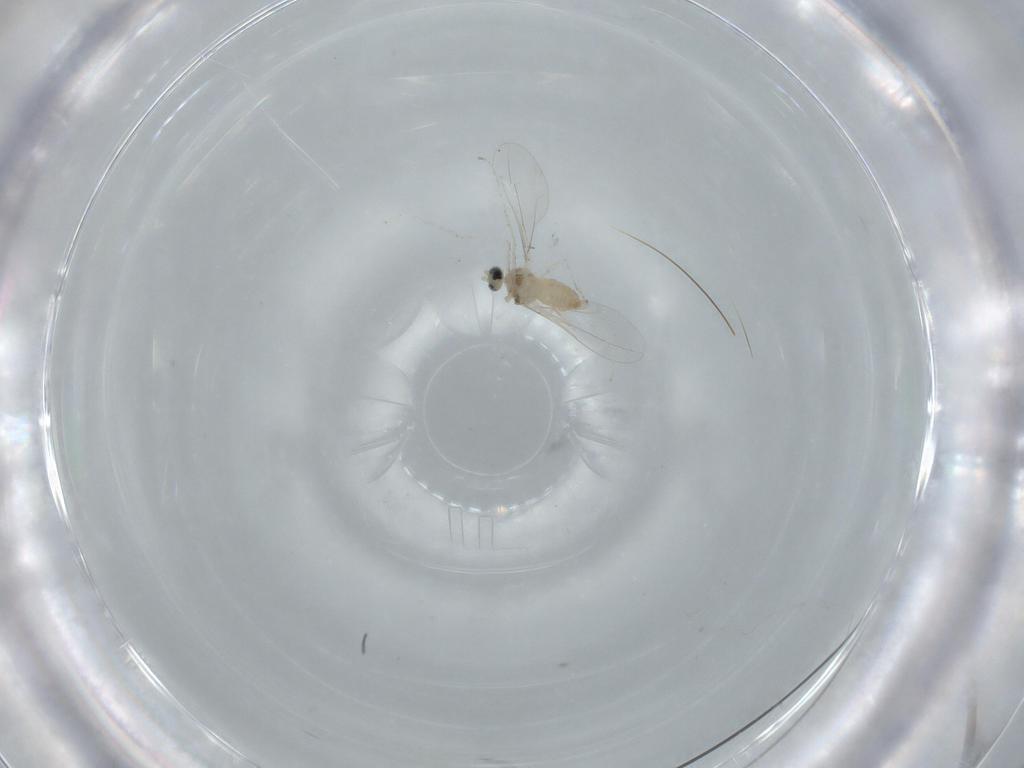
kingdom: Animalia
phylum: Arthropoda
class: Insecta
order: Diptera
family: Cecidomyiidae
